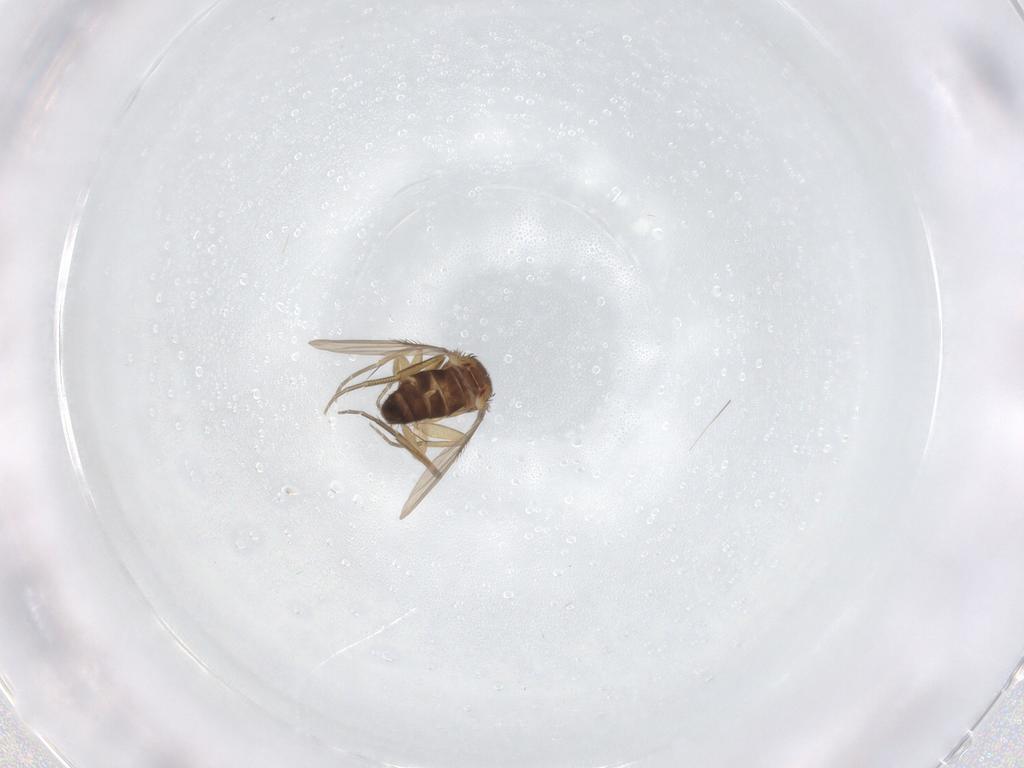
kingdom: Animalia
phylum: Arthropoda
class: Insecta
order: Diptera
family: Phoridae
